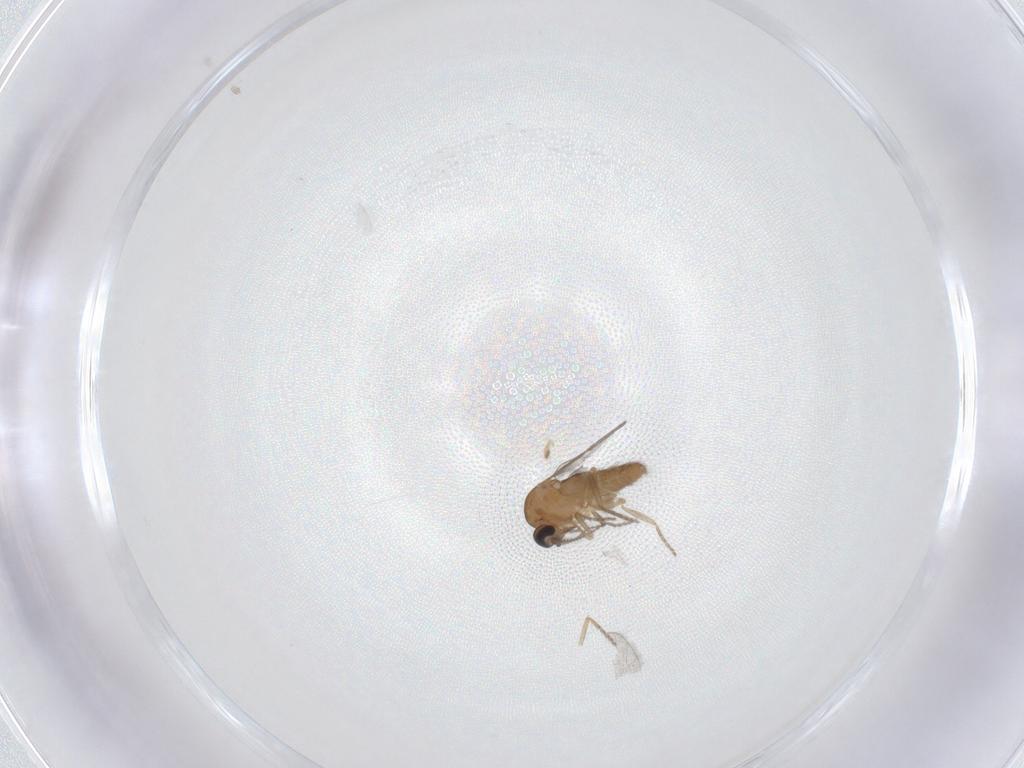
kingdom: Animalia
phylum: Arthropoda
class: Insecta
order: Diptera
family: Ceratopogonidae
